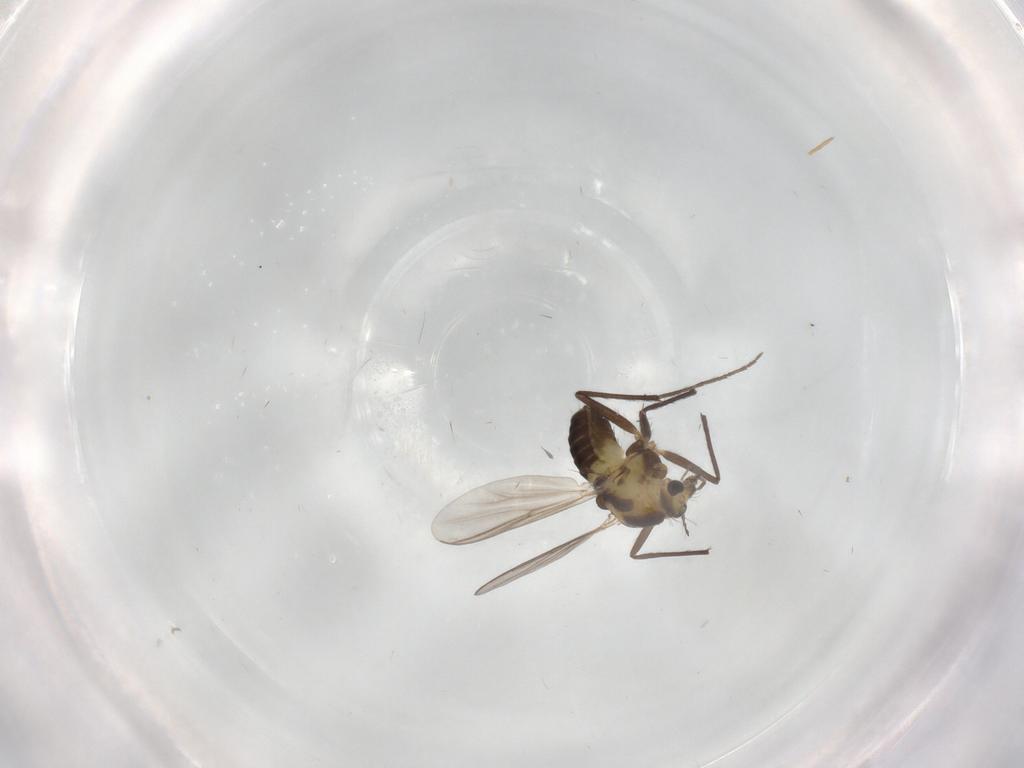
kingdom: Animalia
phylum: Arthropoda
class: Insecta
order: Diptera
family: Chironomidae
